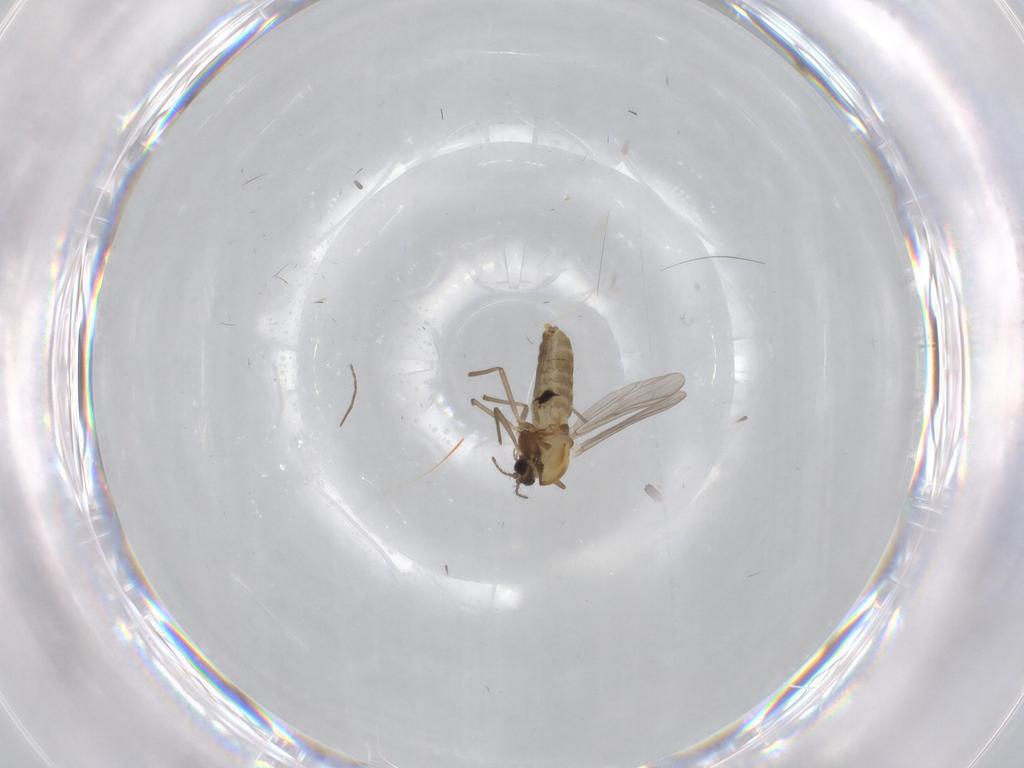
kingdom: Animalia
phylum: Arthropoda
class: Insecta
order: Diptera
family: Chironomidae
